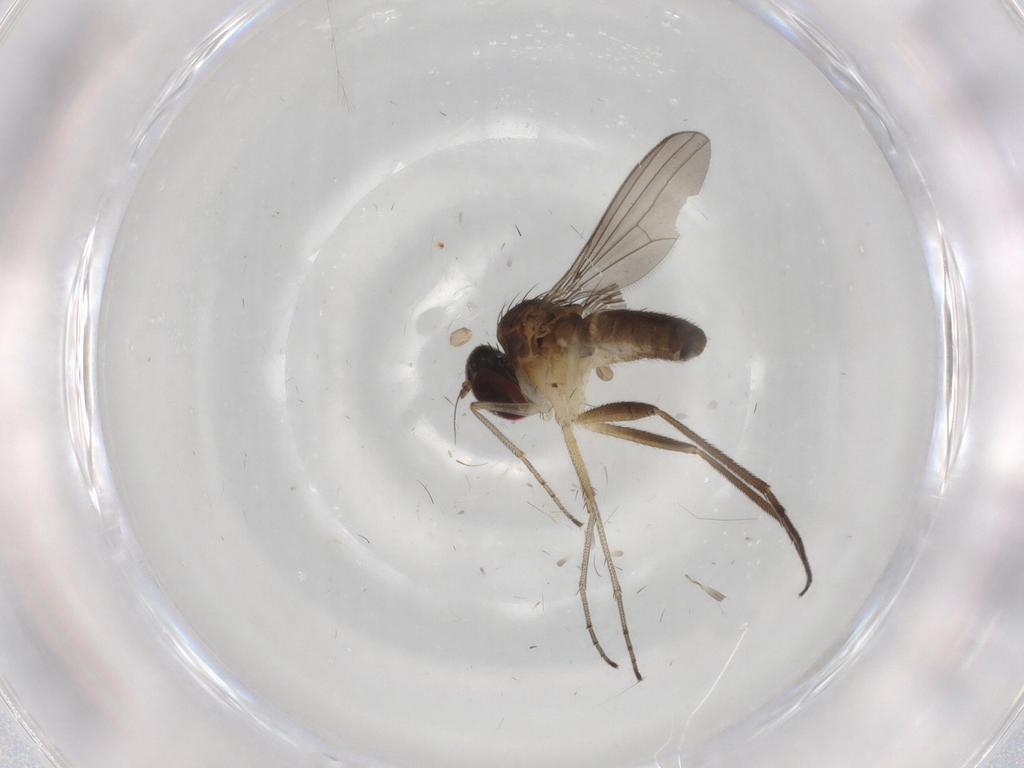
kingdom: Animalia
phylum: Arthropoda
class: Insecta
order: Diptera
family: Dolichopodidae
